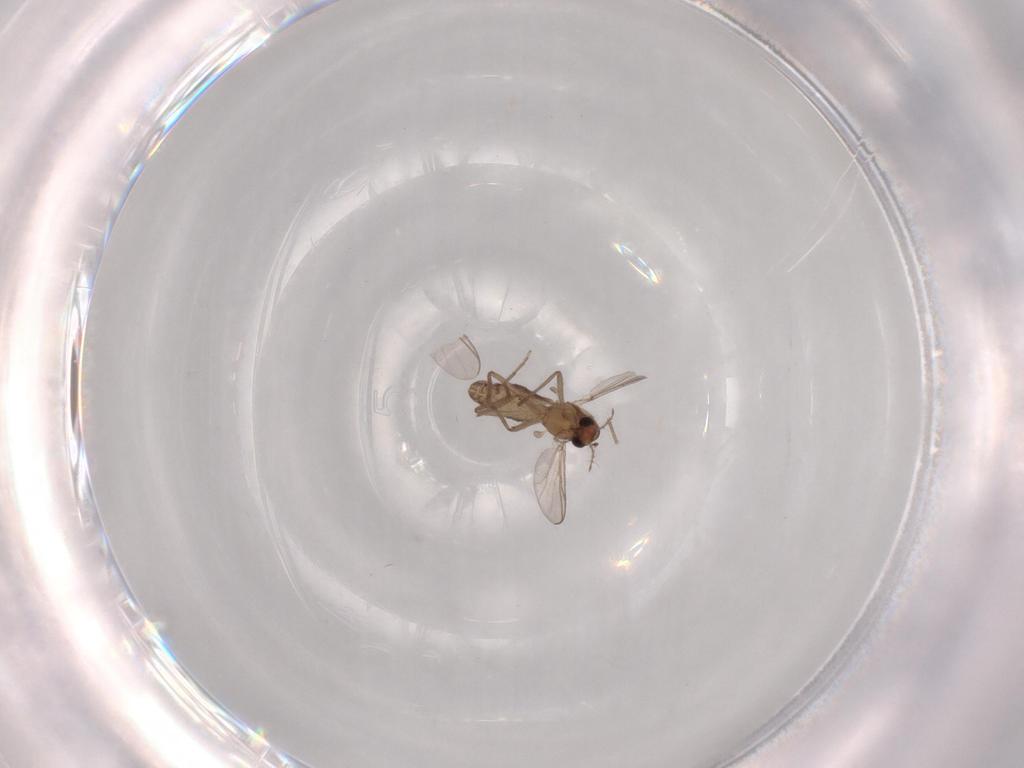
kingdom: Animalia
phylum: Arthropoda
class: Insecta
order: Diptera
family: Chironomidae
